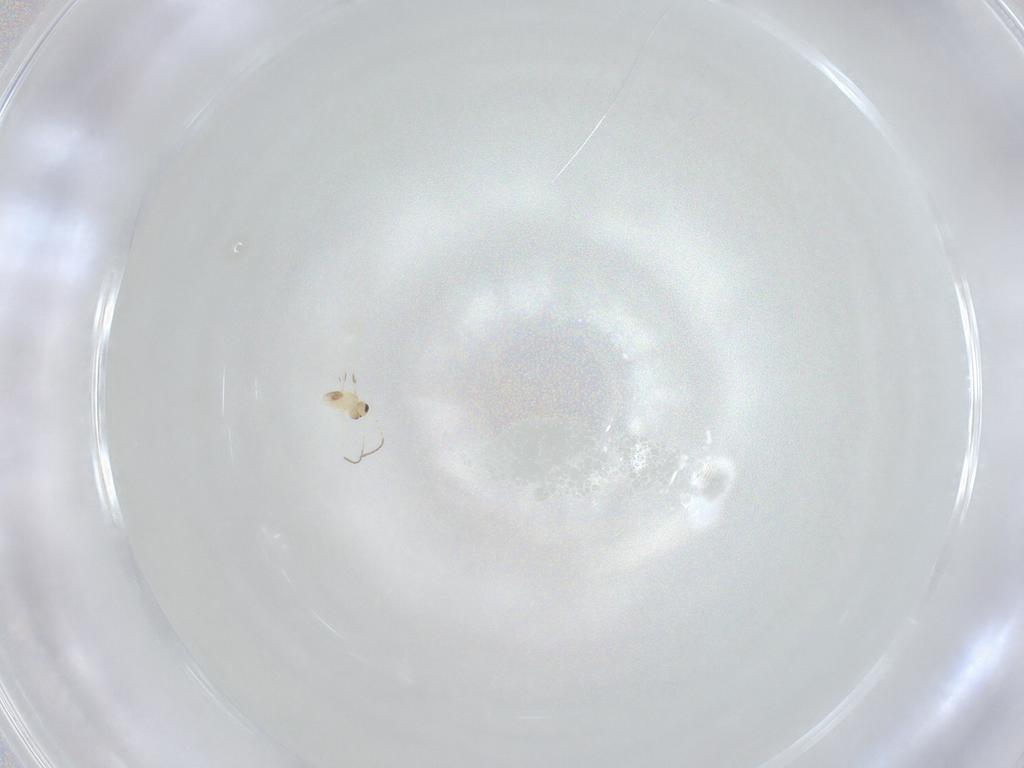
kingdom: Animalia
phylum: Arthropoda
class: Insecta
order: Hymenoptera
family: Mymaridae
